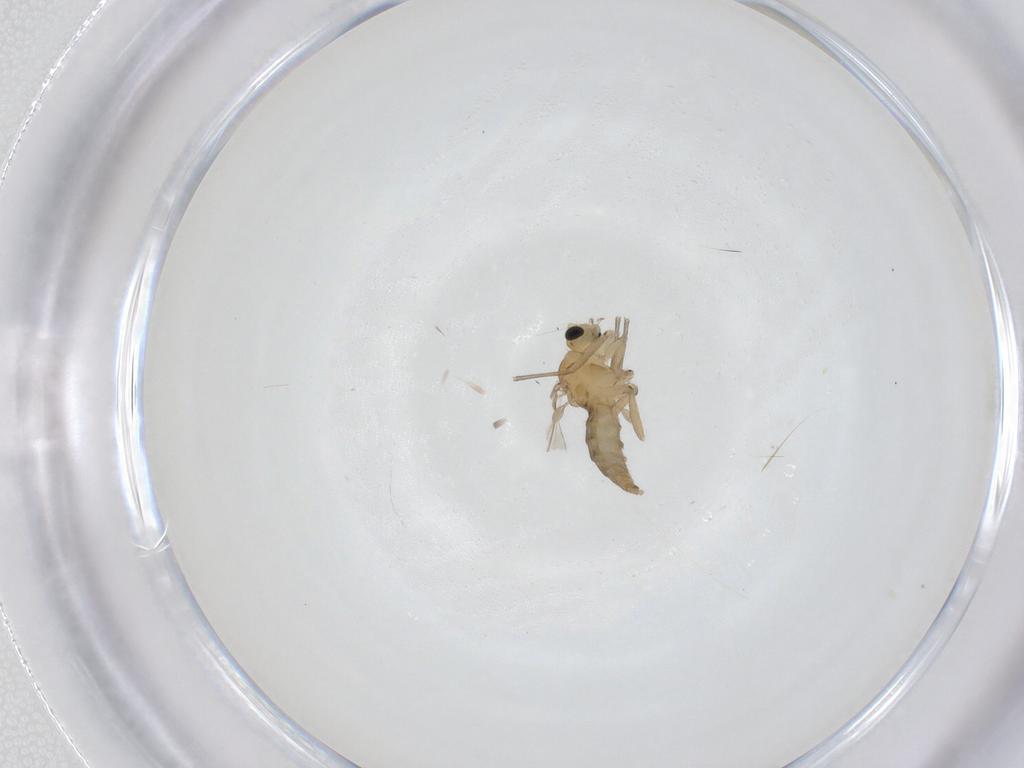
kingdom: Animalia
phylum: Arthropoda
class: Insecta
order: Diptera
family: Sciaridae
